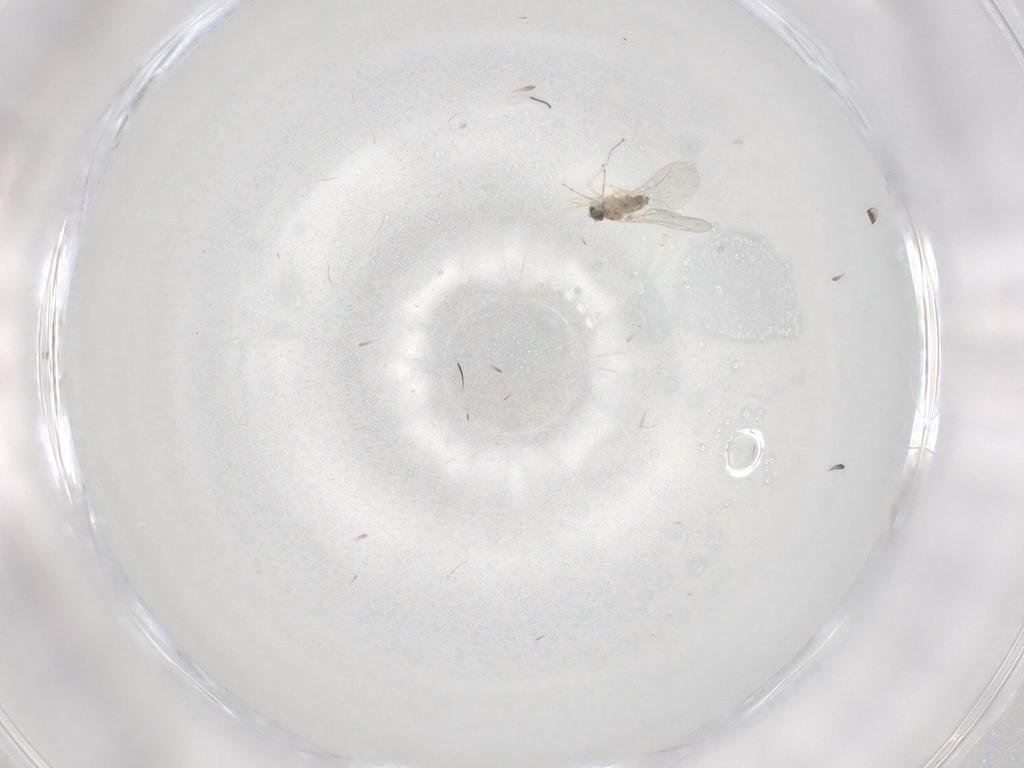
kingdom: Animalia
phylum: Arthropoda
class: Insecta
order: Diptera
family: Cecidomyiidae
